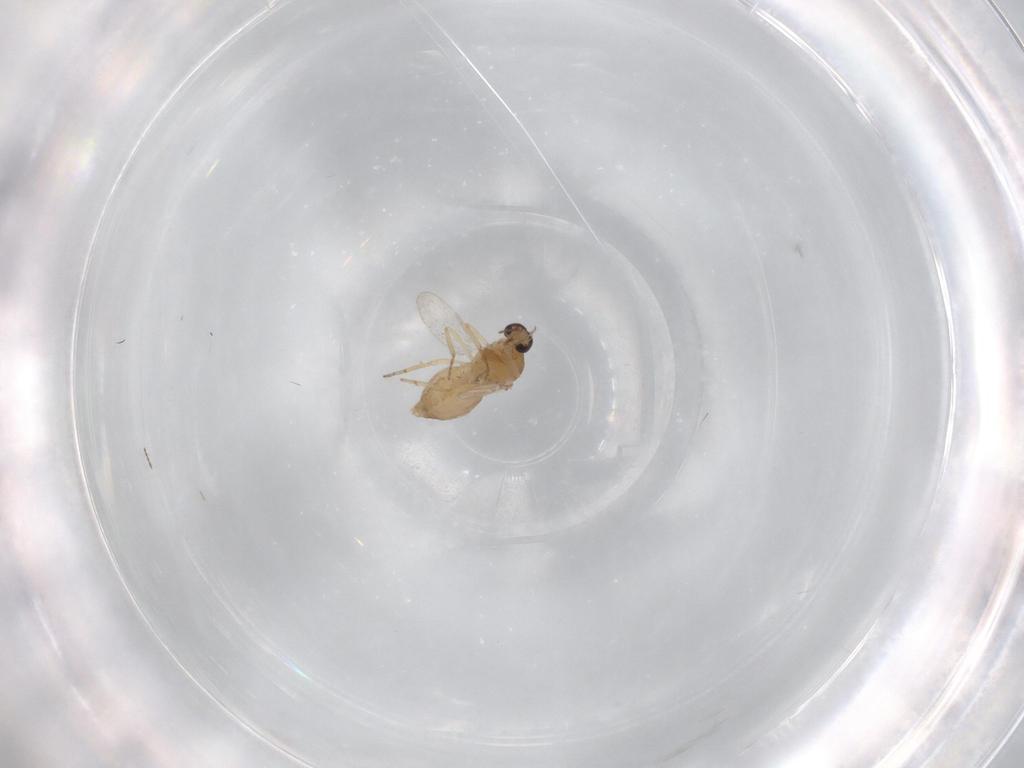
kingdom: Animalia
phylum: Arthropoda
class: Insecta
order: Diptera
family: Ceratopogonidae
